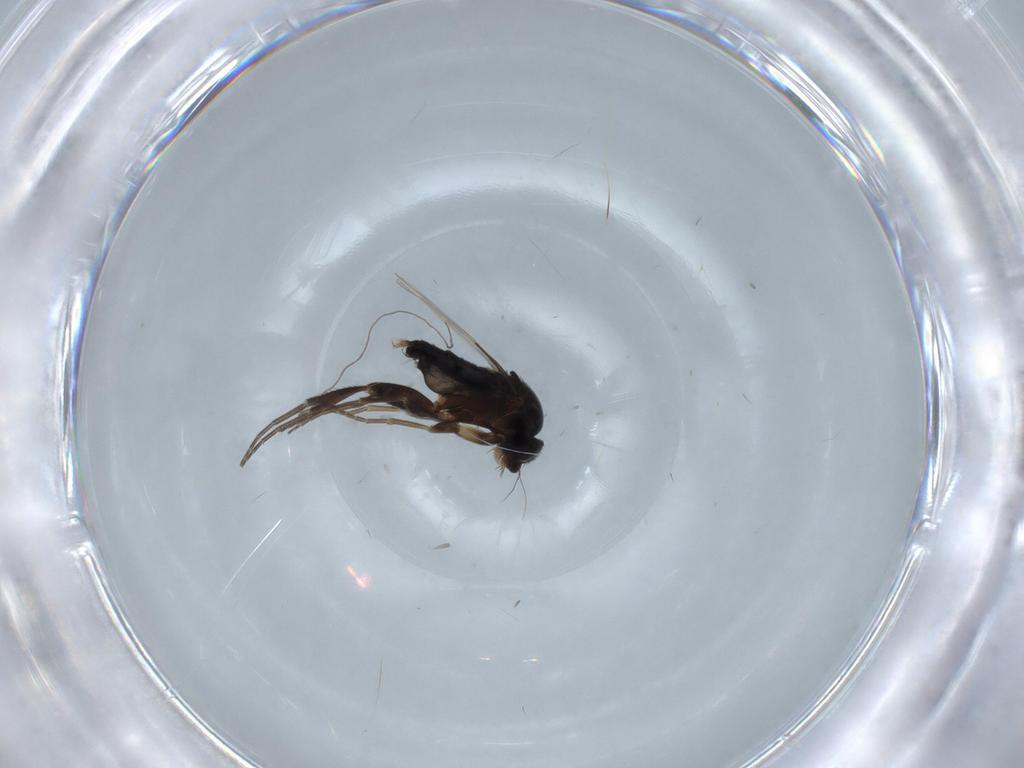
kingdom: Animalia
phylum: Arthropoda
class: Insecta
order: Diptera
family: Phoridae
